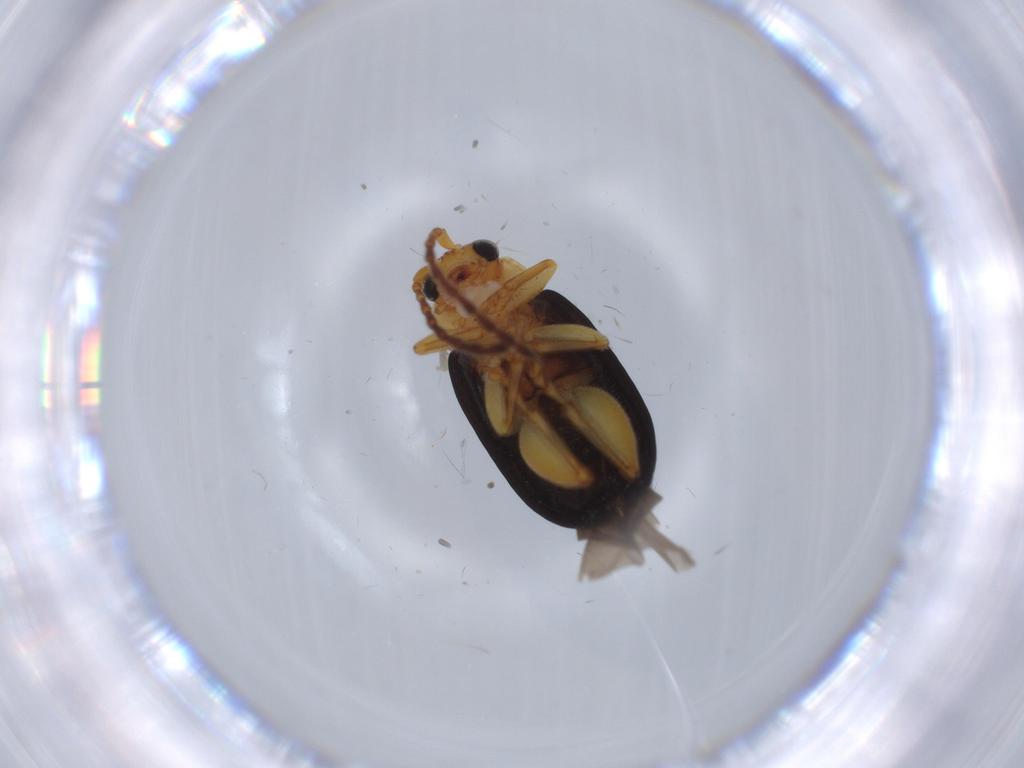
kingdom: Animalia
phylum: Arthropoda
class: Insecta
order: Coleoptera
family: Chrysomelidae
